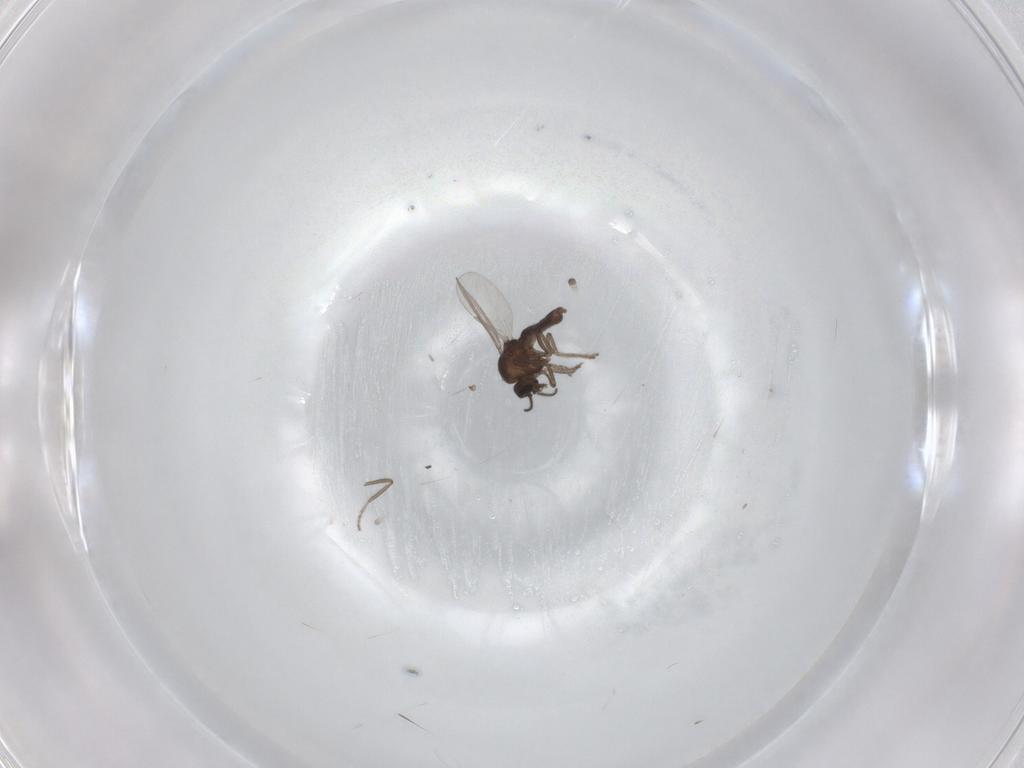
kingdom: Animalia
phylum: Arthropoda
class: Insecta
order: Diptera
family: Ceratopogonidae
